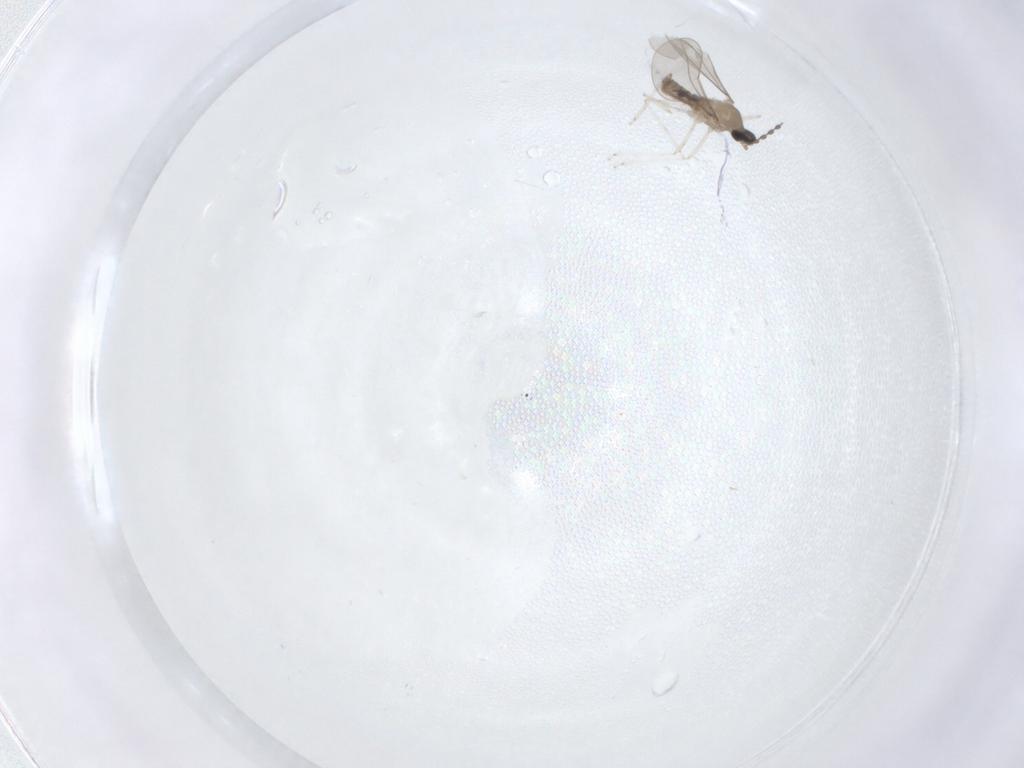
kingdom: Animalia
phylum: Arthropoda
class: Insecta
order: Diptera
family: Cecidomyiidae
